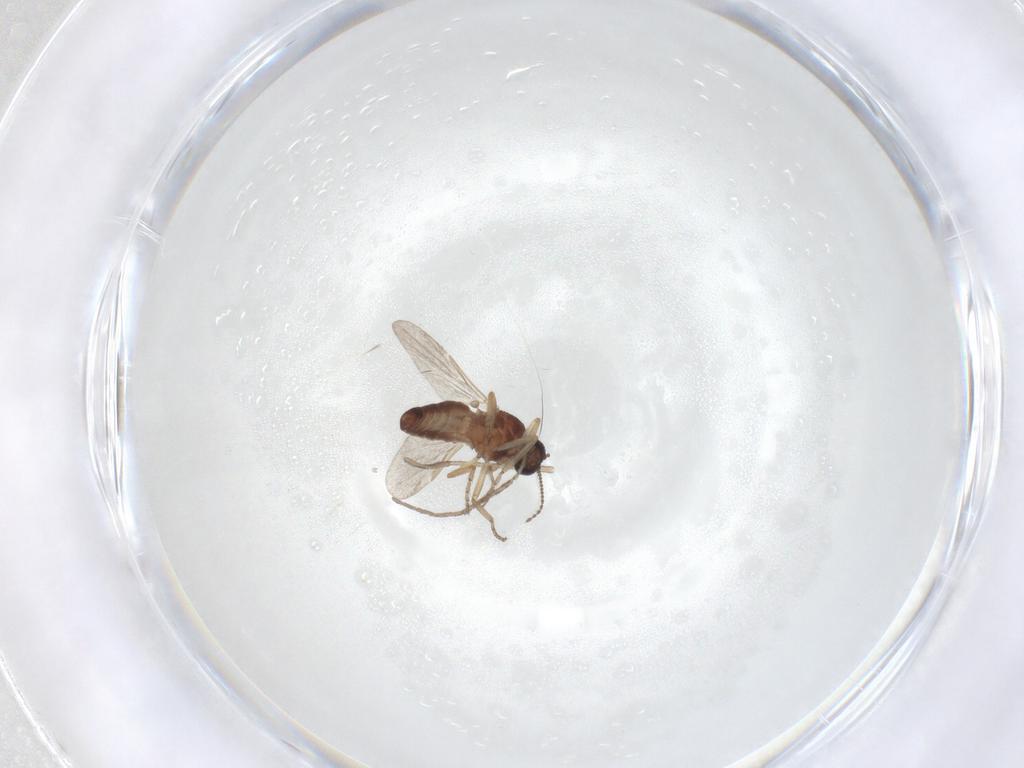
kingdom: Animalia
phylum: Arthropoda
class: Insecta
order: Diptera
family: Ceratopogonidae
